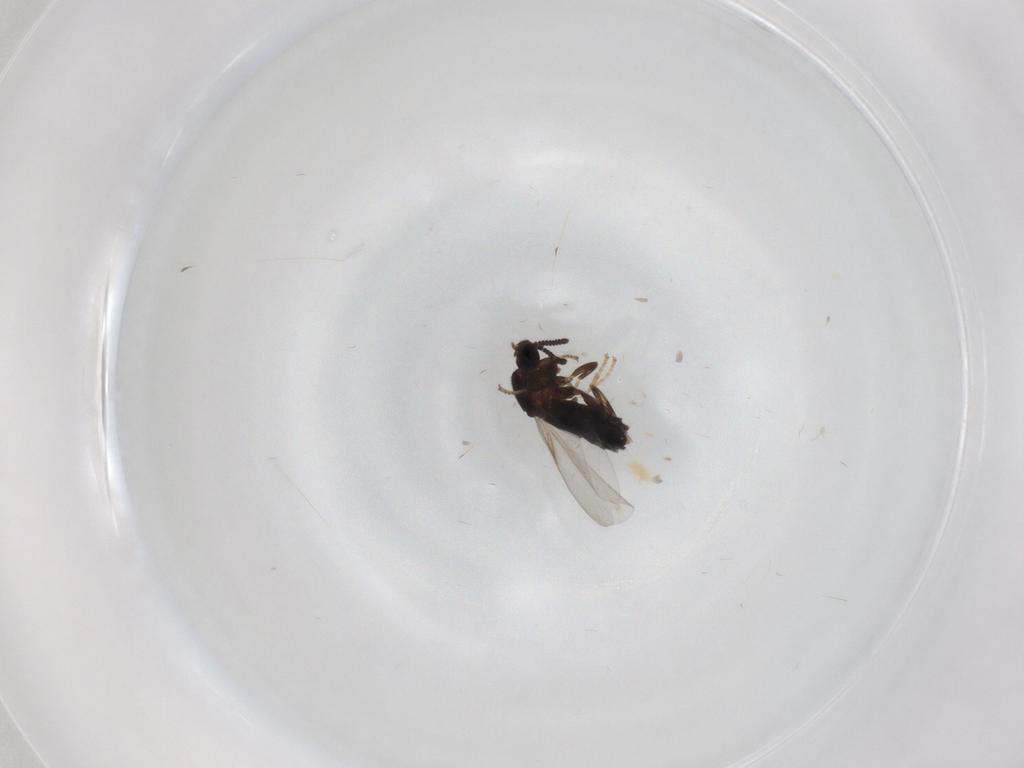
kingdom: Animalia
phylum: Arthropoda
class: Insecta
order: Diptera
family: Scatopsidae
